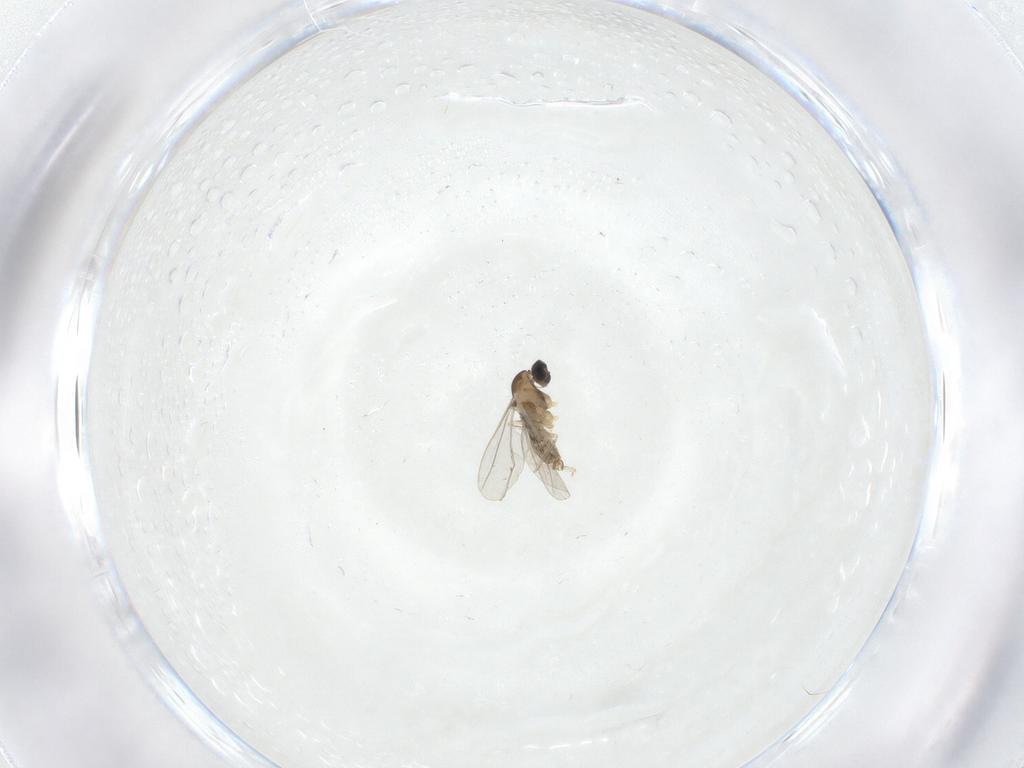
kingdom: Animalia
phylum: Arthropoda
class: Insecta
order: Diptera
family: Cecidomyiidae
